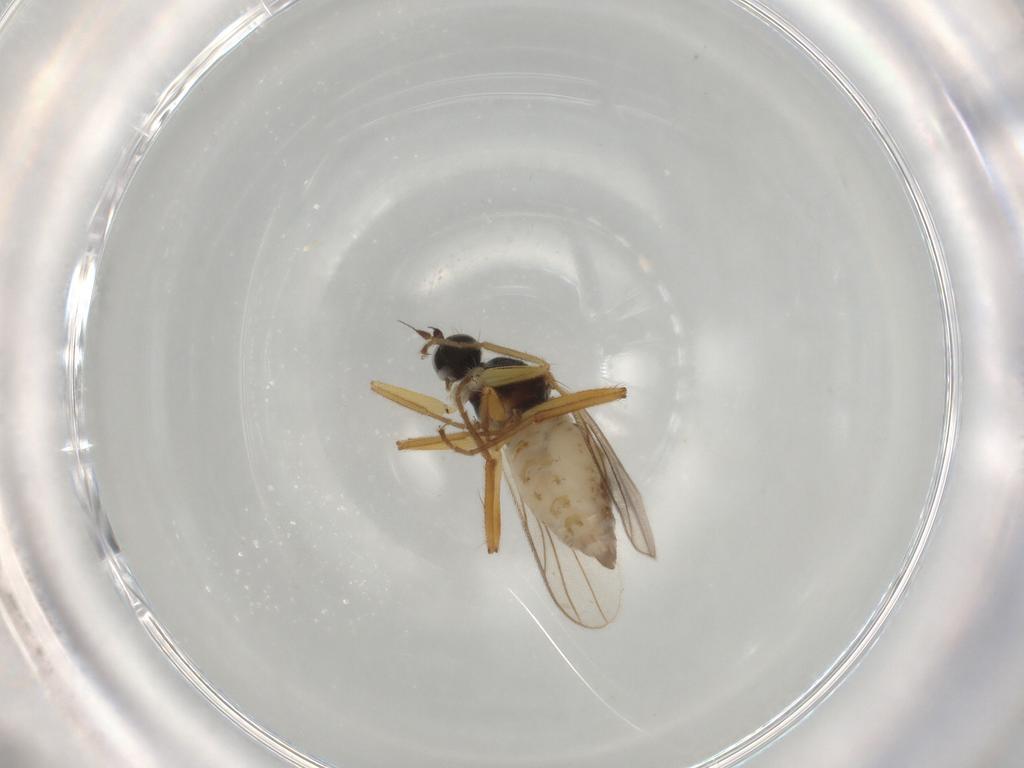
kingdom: Animalia
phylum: Arthropoda
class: Insecta
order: Diptera
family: Hybotidae
